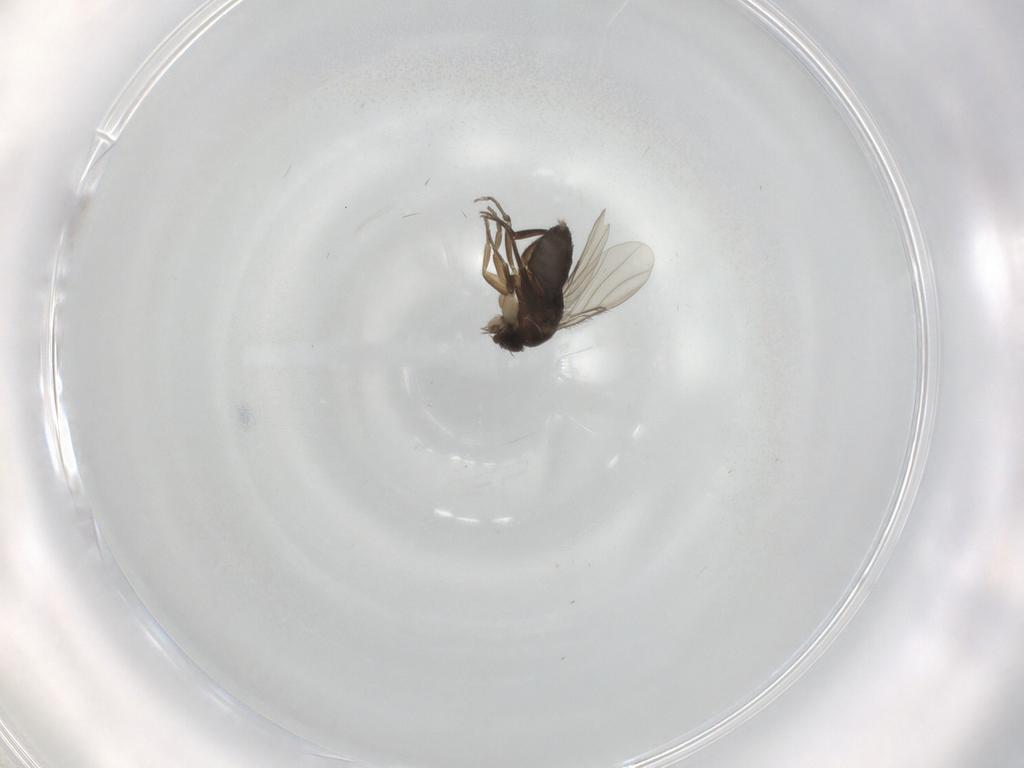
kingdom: Animalia
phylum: Arthropoda
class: Insecta
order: Diptera
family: Phoridae
